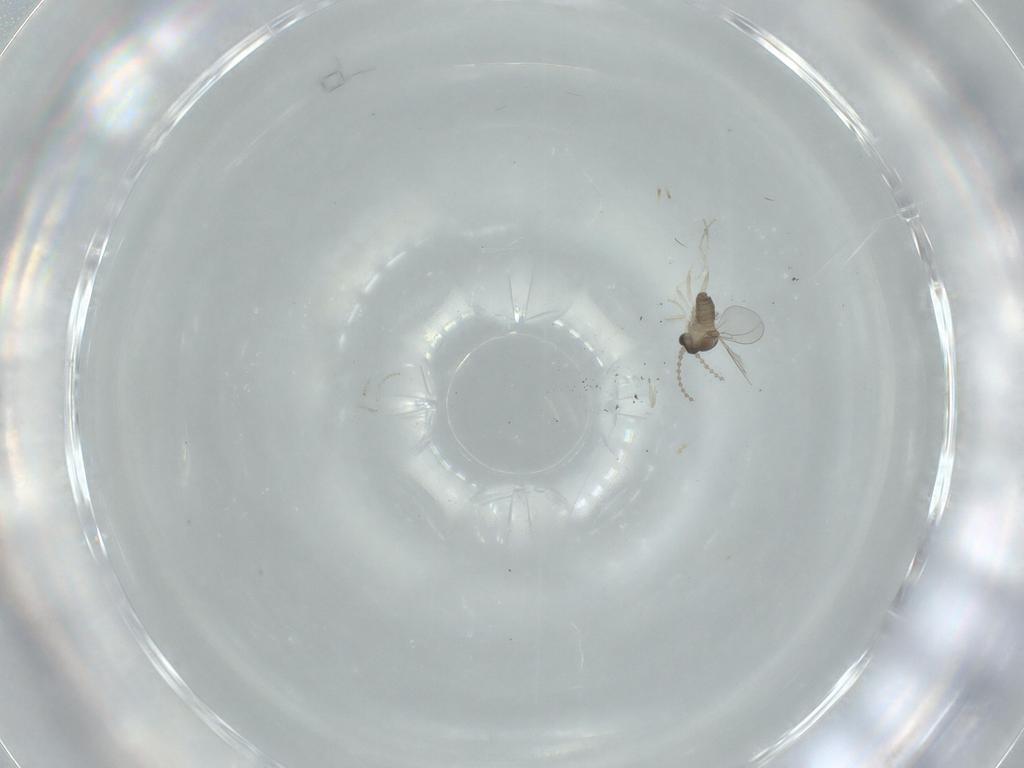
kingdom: Animalia
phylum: Arthropoda
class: Insecta
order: Diptera
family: Cecidomyiidae
